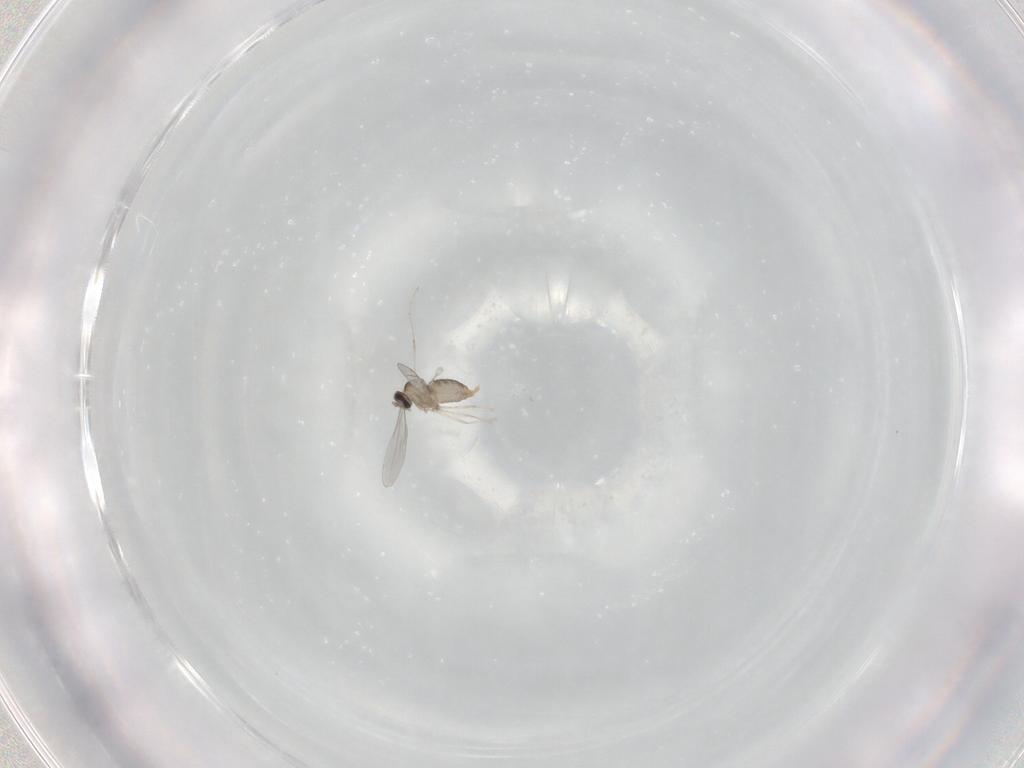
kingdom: Animalia
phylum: Arthropoda
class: Insecta
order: Diptera
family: Cecidomyiidae
